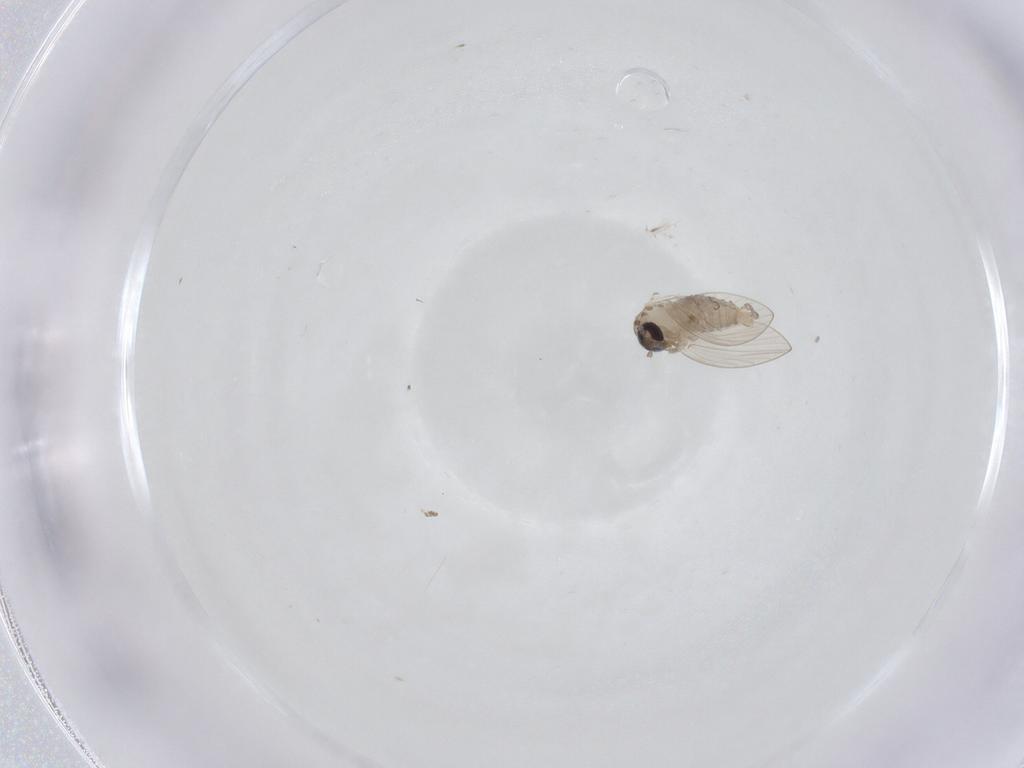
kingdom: Animalia
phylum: Arthropoda
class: Insecta
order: Diptera
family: Psychodidae
